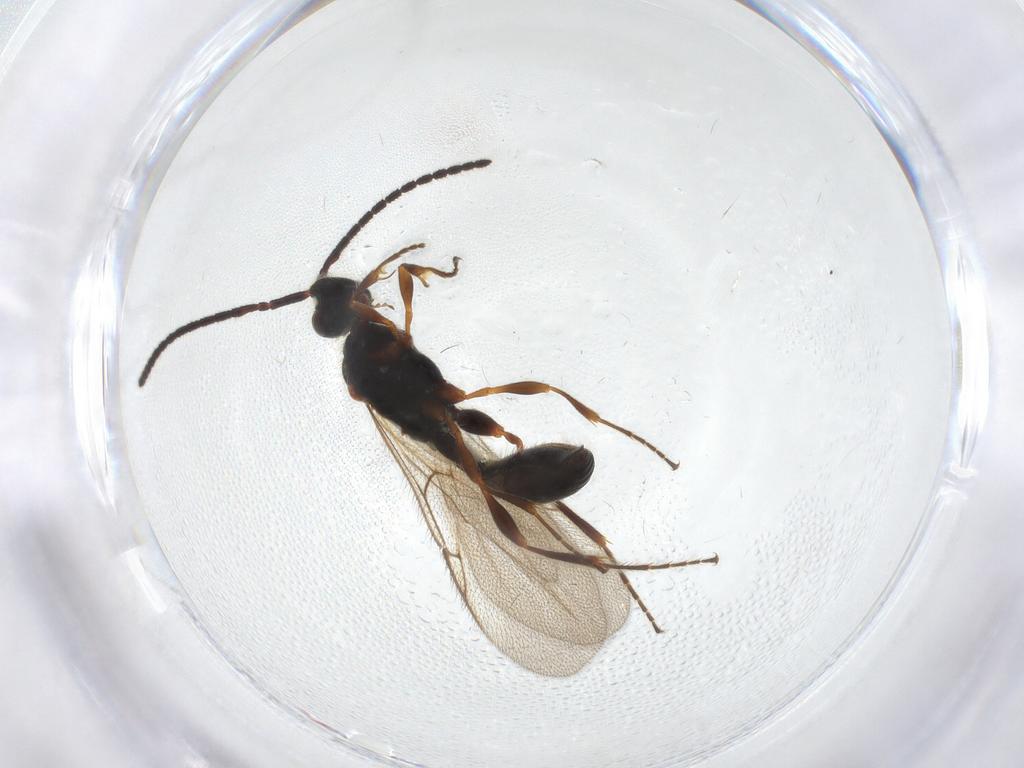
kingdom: Animalia
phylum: Arthropoda
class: Insecta
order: Hymenoptera
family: Diapriidae
